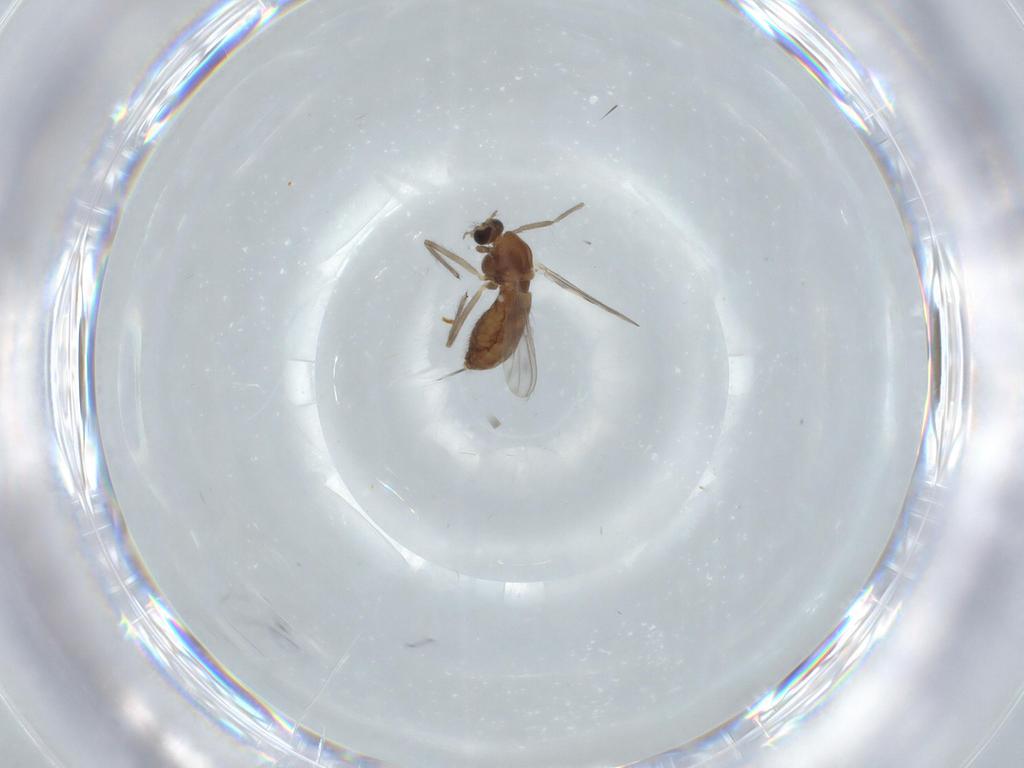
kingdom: Animalia
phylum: Arthropoda
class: Insecta
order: Diptera
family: Chironomidae
